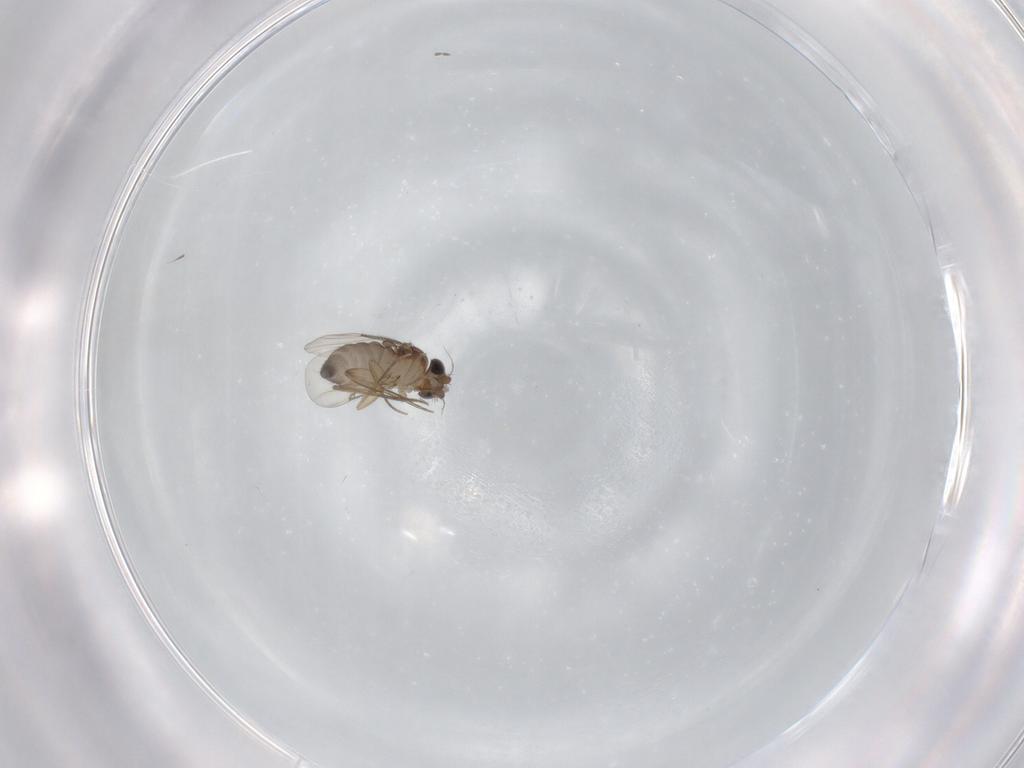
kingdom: Animalia
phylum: Arthropoda
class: Insecta
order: Diptera
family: Phoridae
